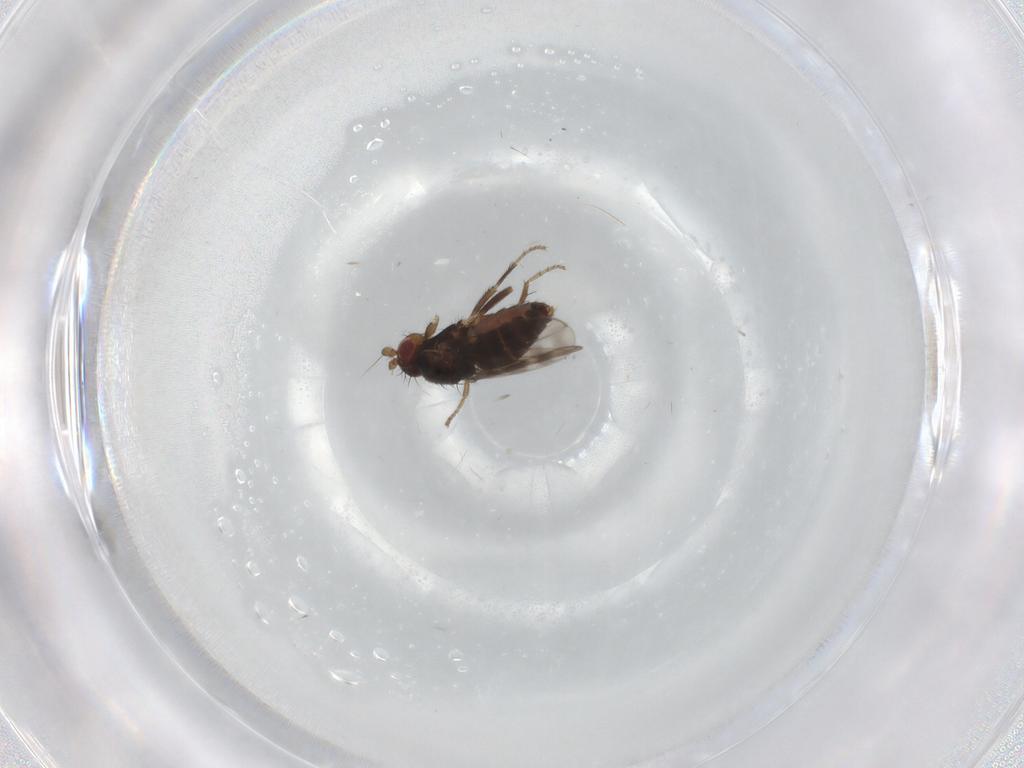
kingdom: Animalia
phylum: Arthropoda
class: Insecta
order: Diptera
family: Sphaeroceridae
